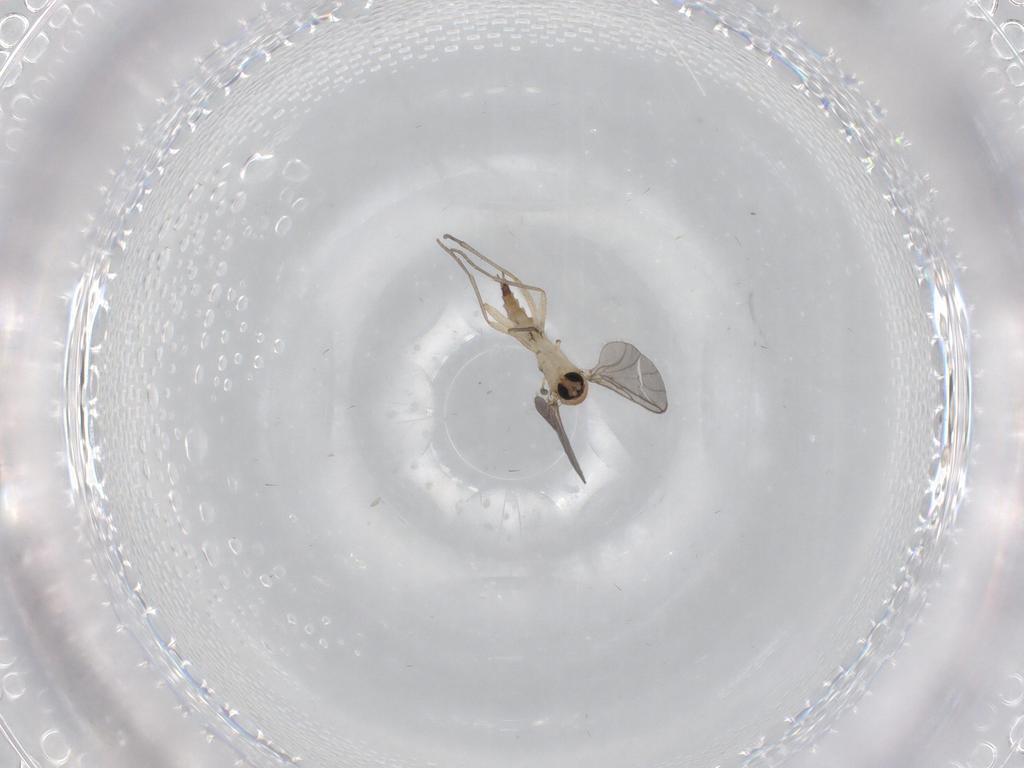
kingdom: Animalia
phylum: Arthropoda
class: Insecta
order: Diptera
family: Sciaridae
